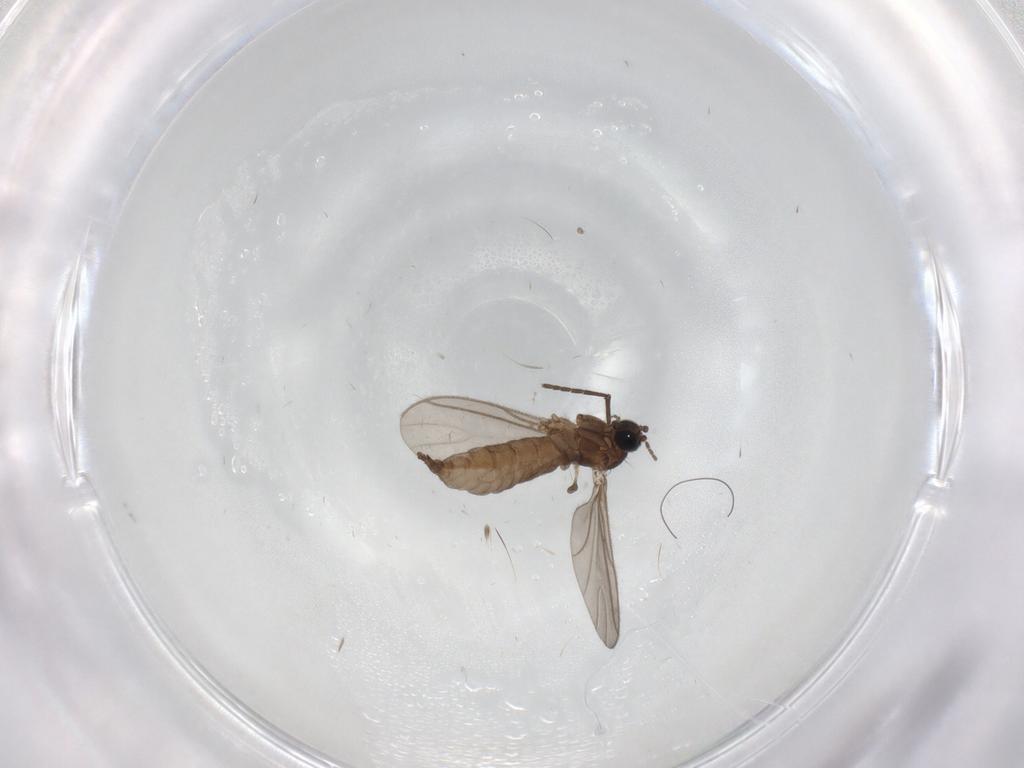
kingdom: Animalia
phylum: Arthropoda
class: Insecta
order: Diptera
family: Sciaridae
